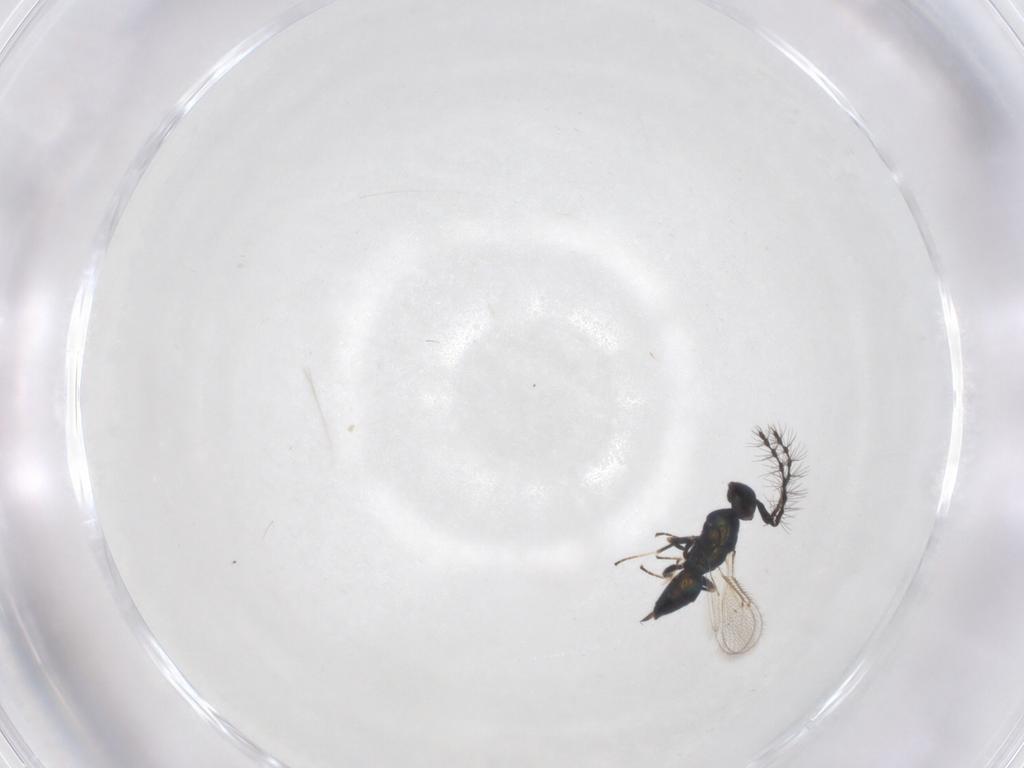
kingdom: Animalia
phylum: Arthropoda
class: Insecta
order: Hymenoptera
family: Eulophidae
